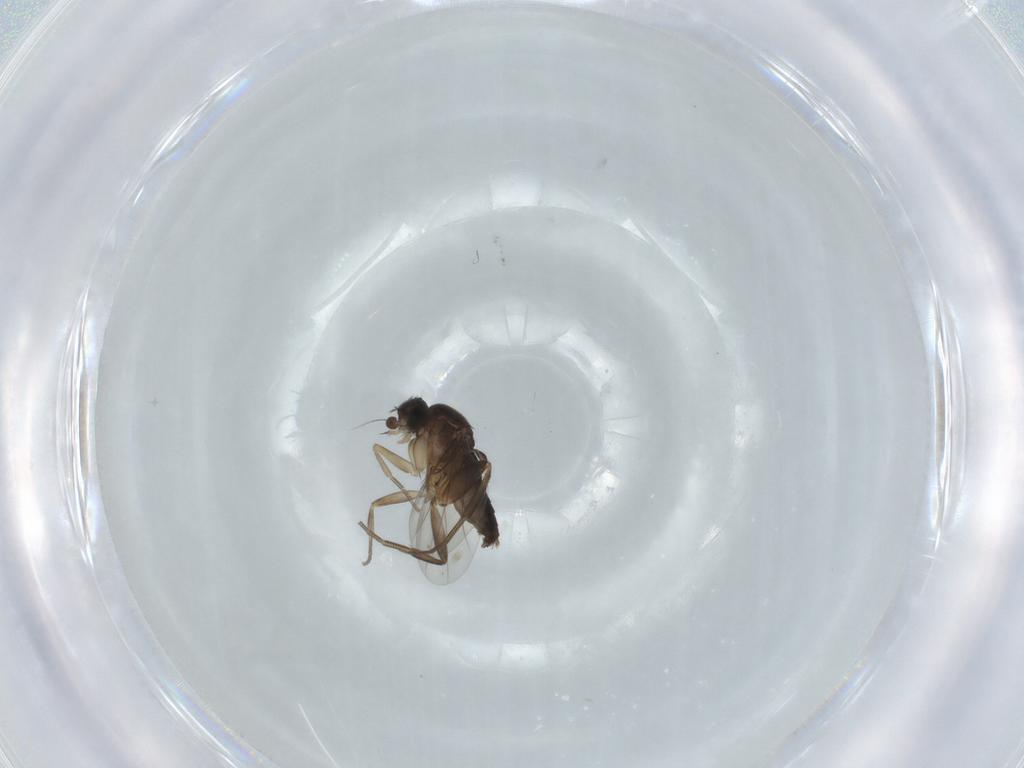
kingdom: Animalia
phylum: Arthropoda
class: Insecta
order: Diptera
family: Phoridae
